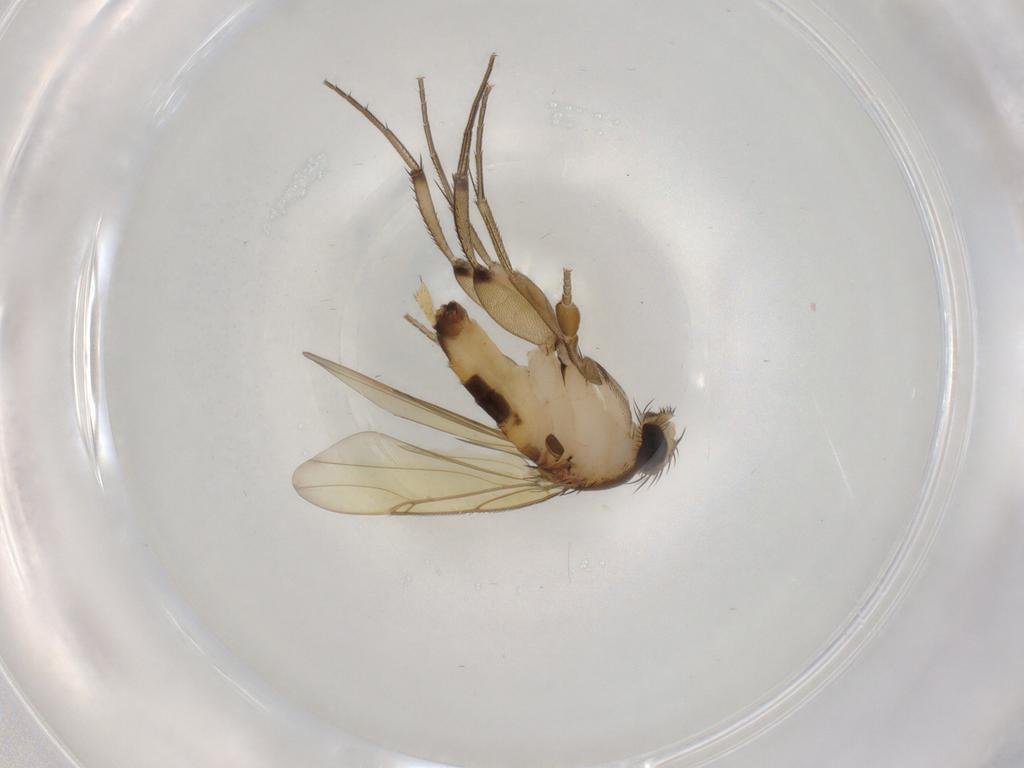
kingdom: Animalia
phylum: Arthropoda
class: Insecta
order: Diptera
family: Phoridae
